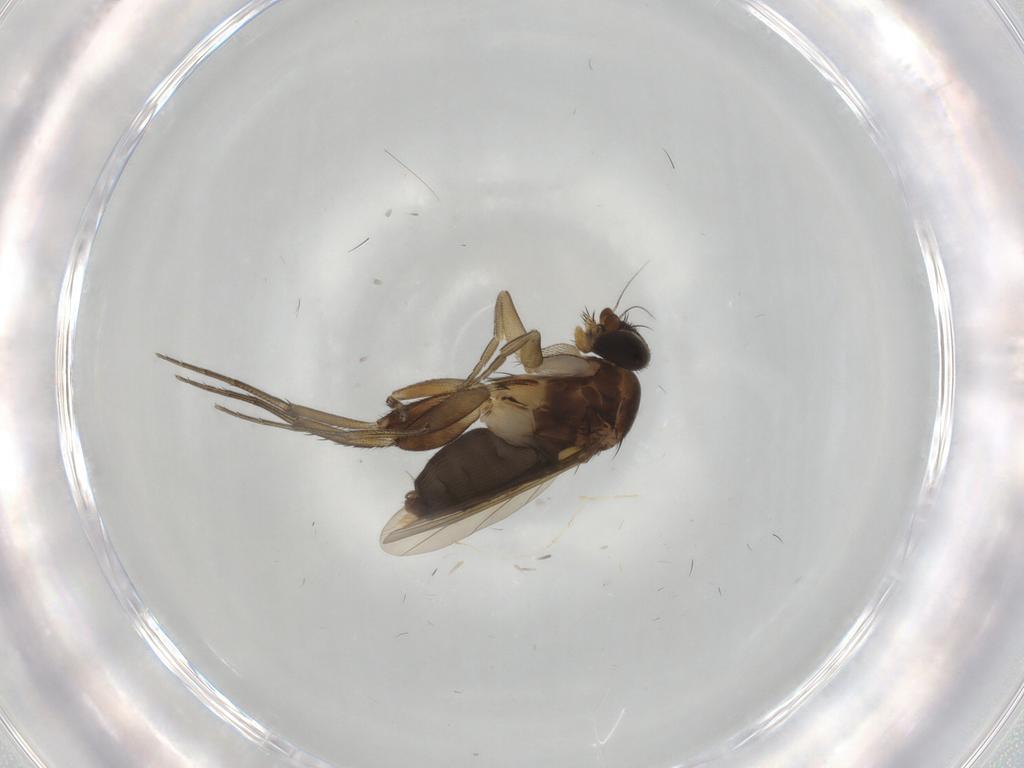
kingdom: Animalia
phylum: Arthropoda
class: Insecta
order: Diptera
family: Phoridae
